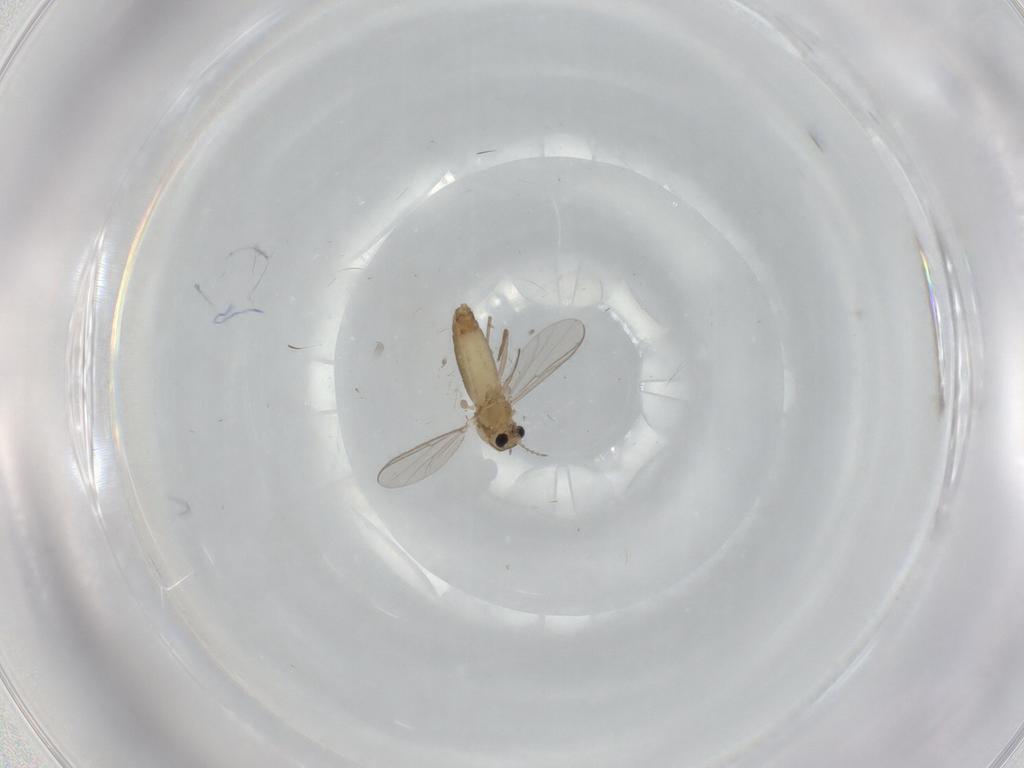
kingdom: Animalia
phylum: Arthropoda
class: Insecta
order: Diptera
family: Chironomidae
